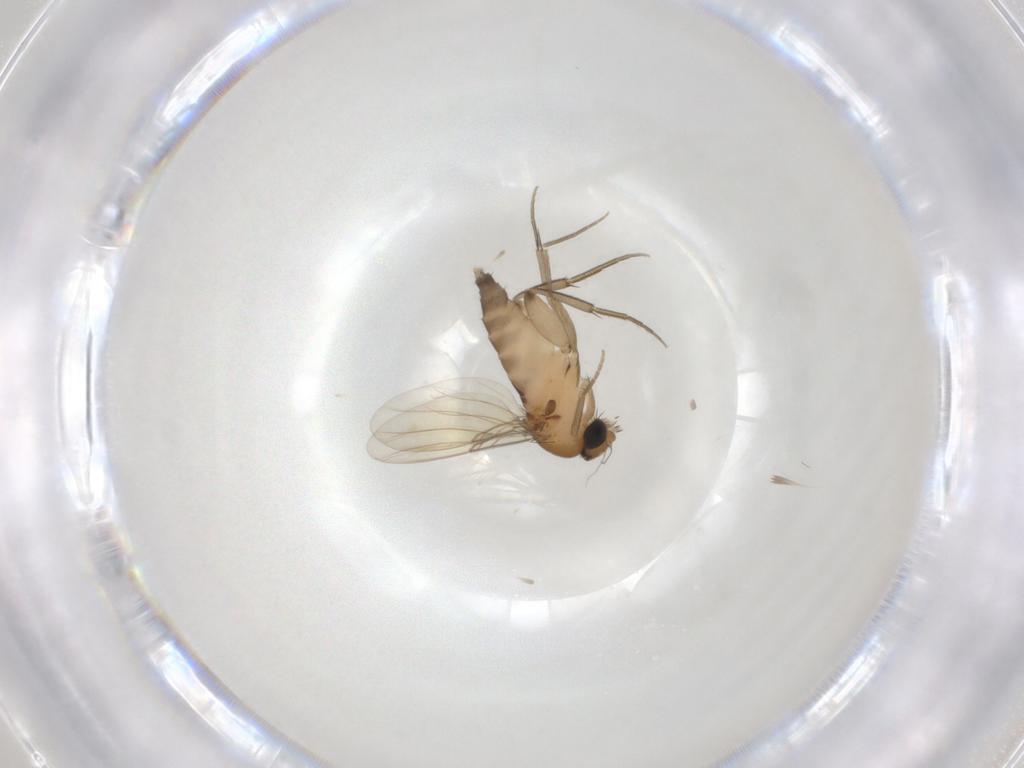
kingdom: Animalia
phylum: Arthropoda
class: Insecta
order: Diptera
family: Phoridae
